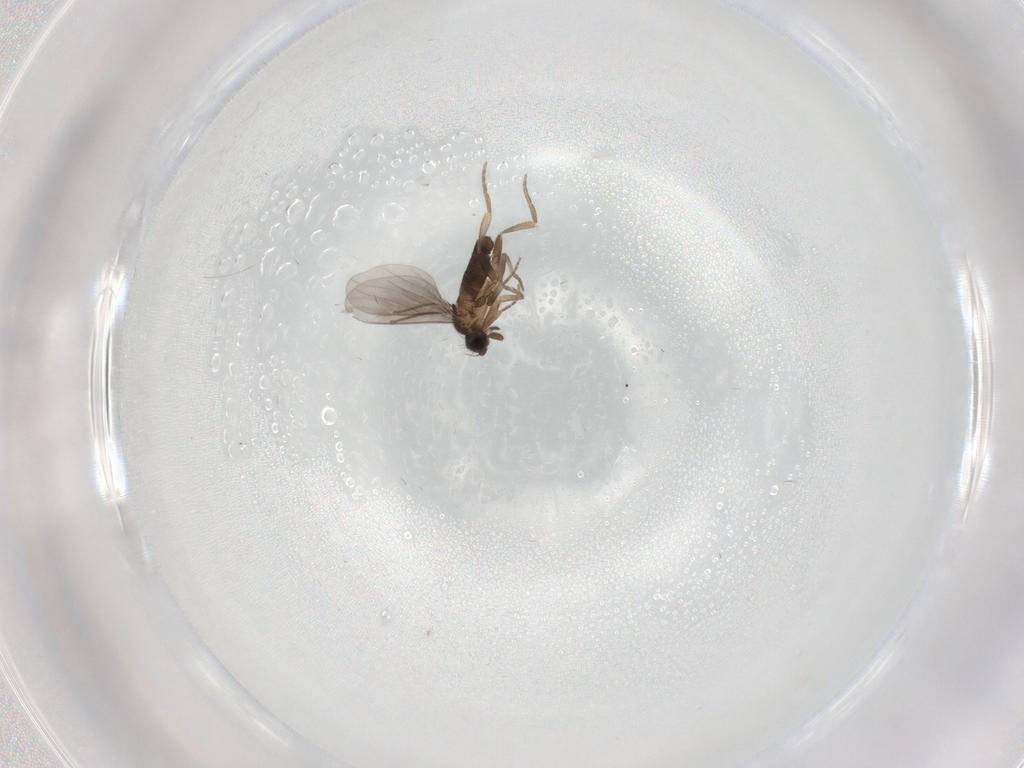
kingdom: Animalia
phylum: Arthropoda
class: Insecta
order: Diptera
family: Chironomidae
